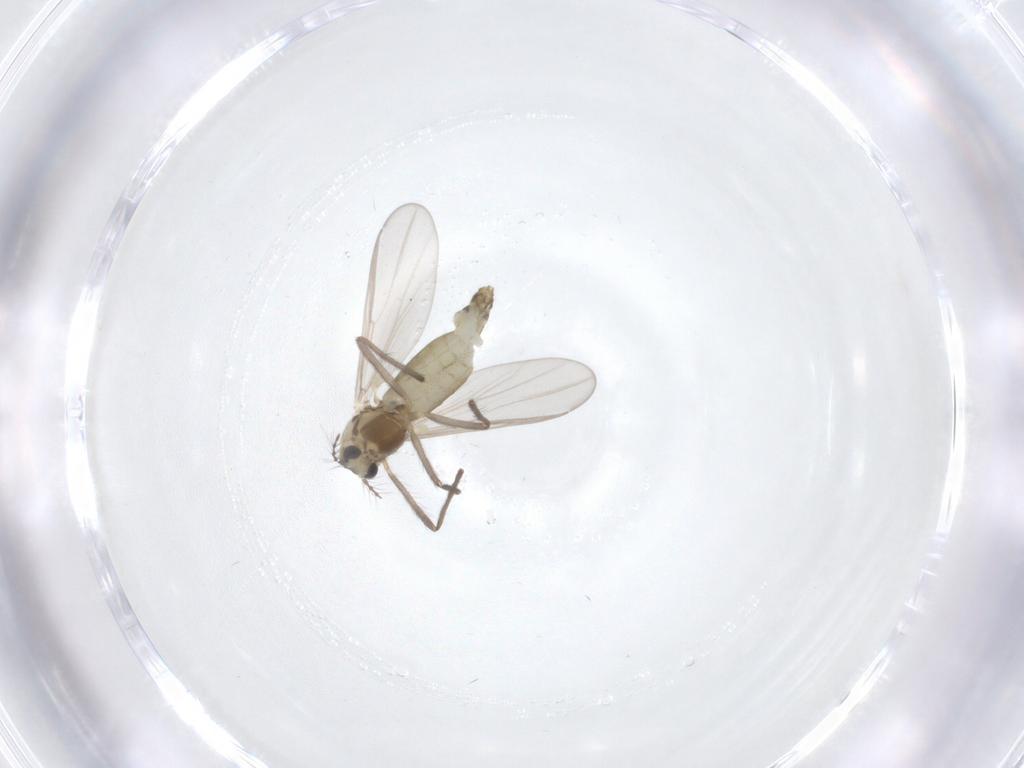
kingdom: Animalia
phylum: Arthropoda
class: Insecta
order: Diptera
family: Chironomidae
